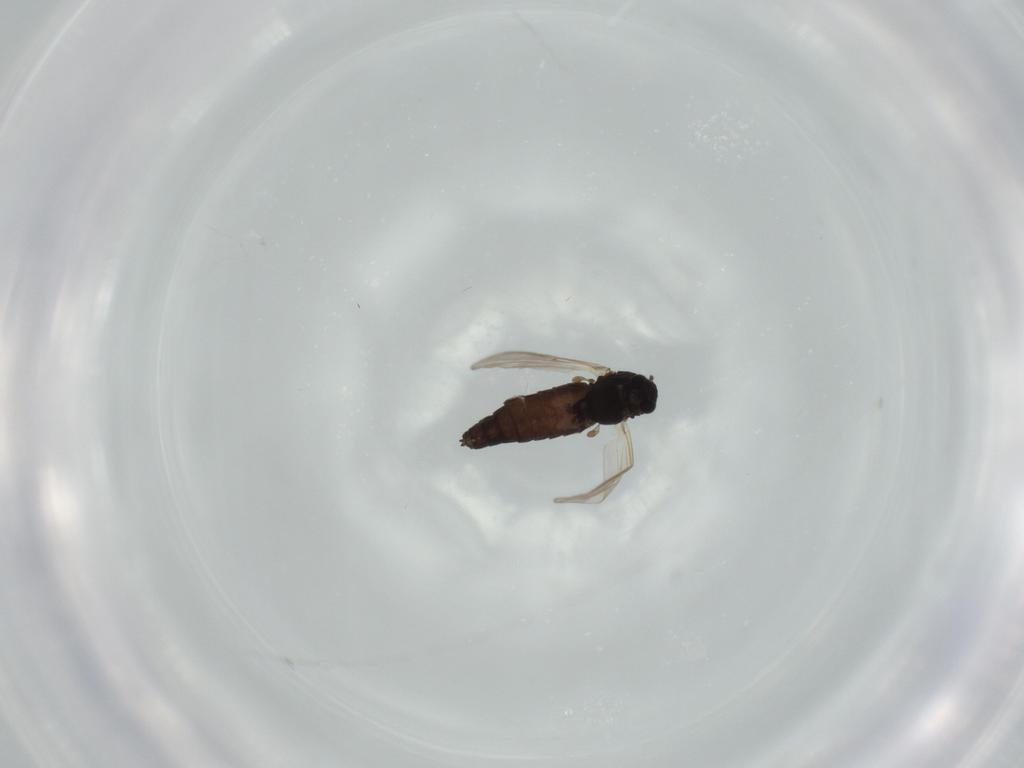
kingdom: Animalia
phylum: Arthropoda
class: Insecta
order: Diptera
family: Chironomidae
